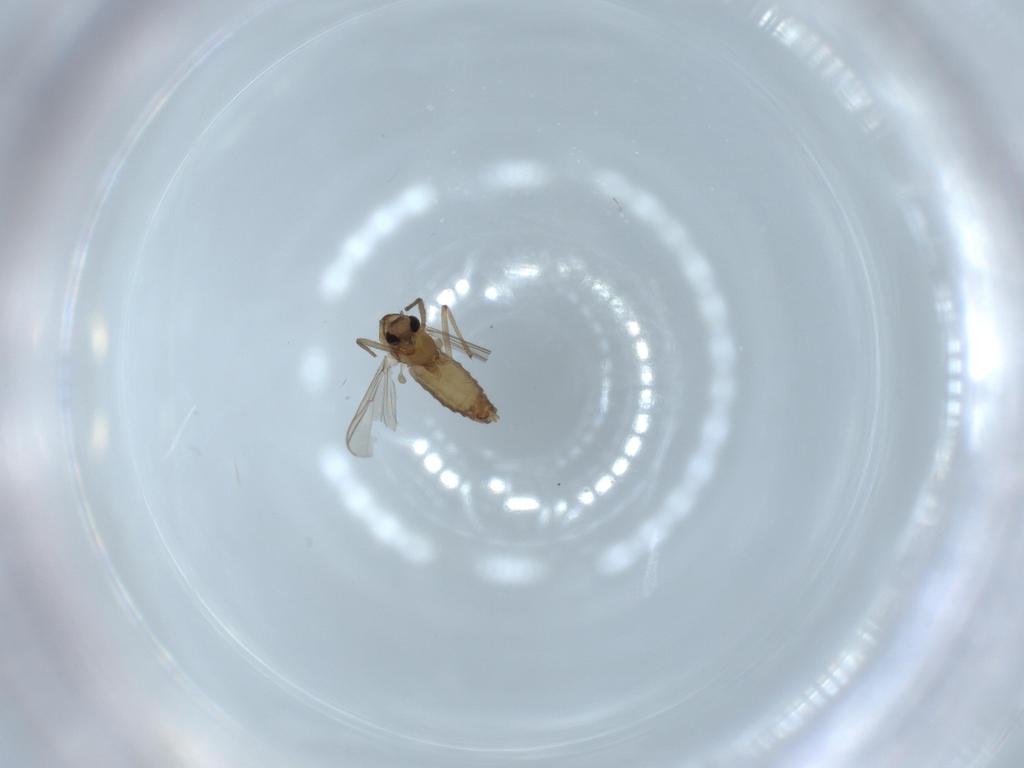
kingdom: Animalia
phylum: Arthropoda
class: Insecta
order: Diptera
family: Chironomidae
